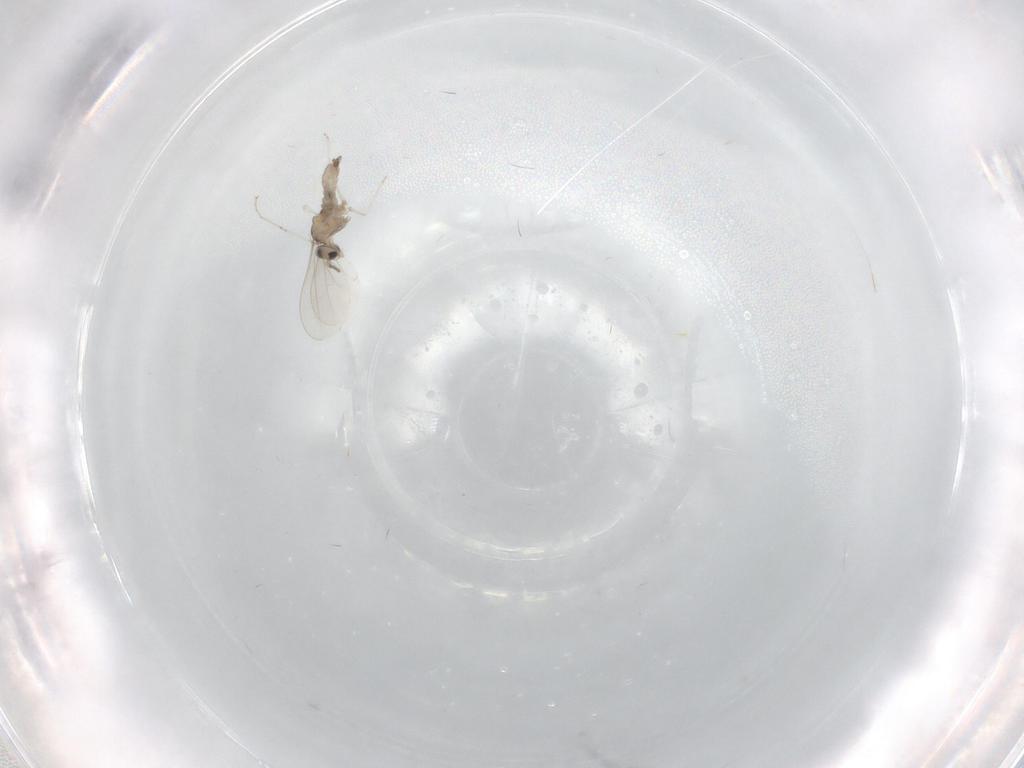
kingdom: Animalia
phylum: Arthropoda
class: Insecta
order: Diptera
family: Cecidomyiidae
